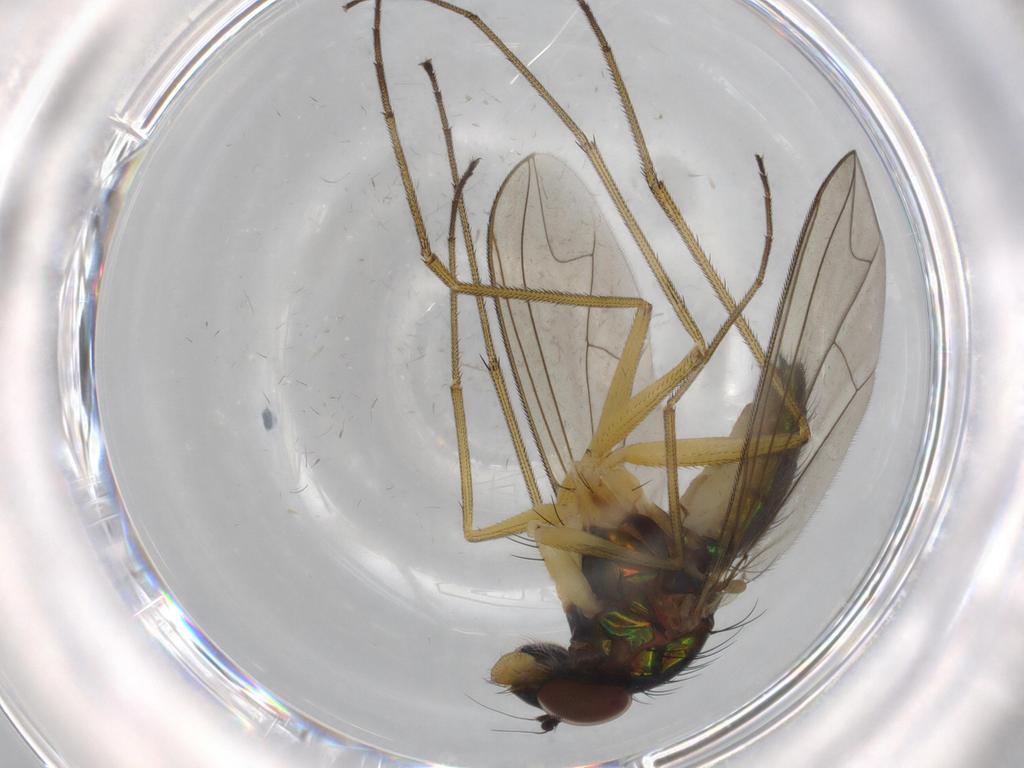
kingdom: Animalia
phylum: Arthropoda
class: Insecta
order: Diptera
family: Dolichopodidae
